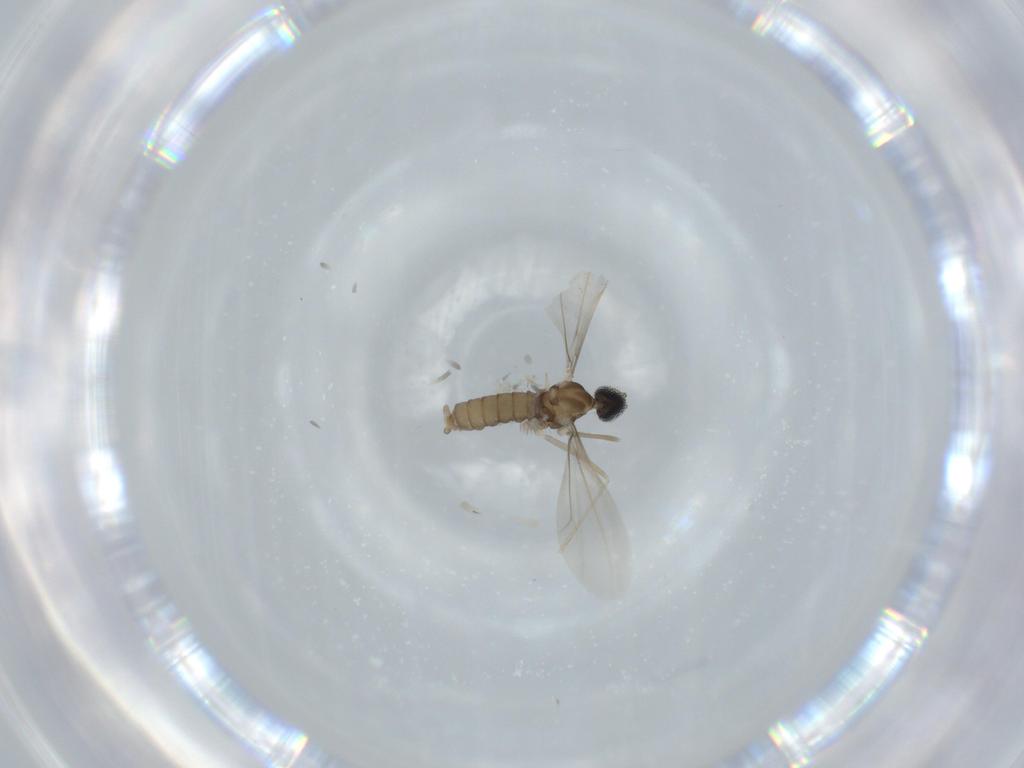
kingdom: Animalia
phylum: Arthropoda
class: Insecta
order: Diptera
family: Cecidomyiidae
